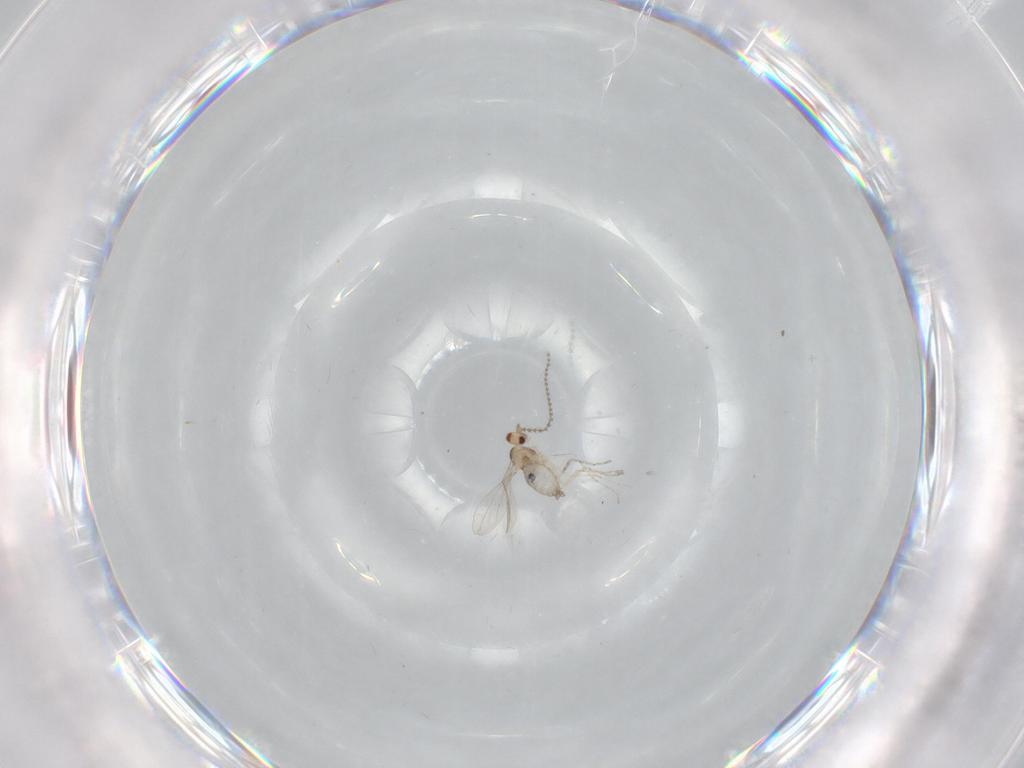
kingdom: Animalia
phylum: Arthropoda
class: Insecta
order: Diptera
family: Cecidomyiidae
